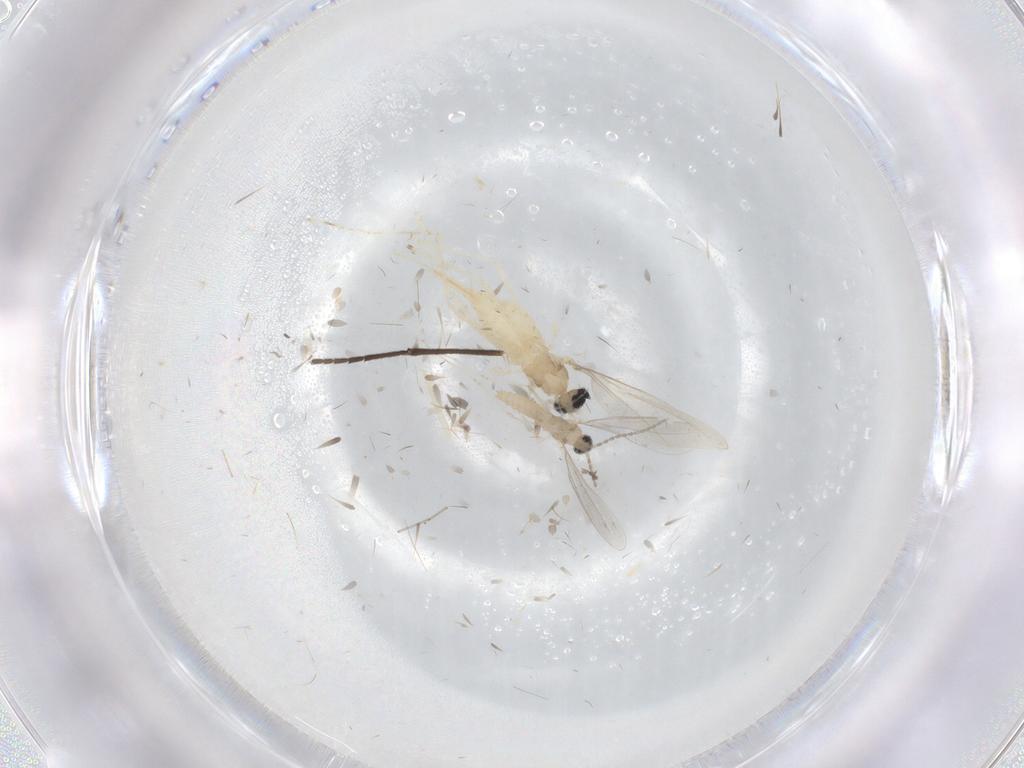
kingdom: Animalia
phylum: Arthropoda
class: Insecta
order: Diptera
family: Cecidomyiidae
